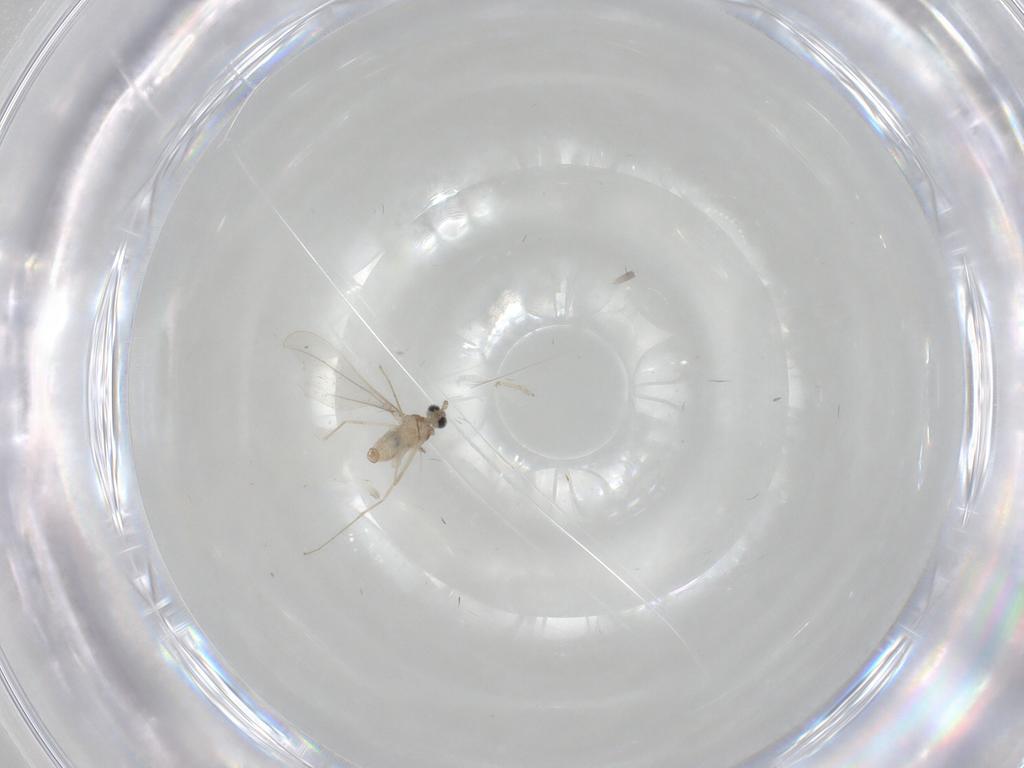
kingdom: Animalia
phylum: Arthropoda
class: Insecta
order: Diptera
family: Cecidomyiidae
